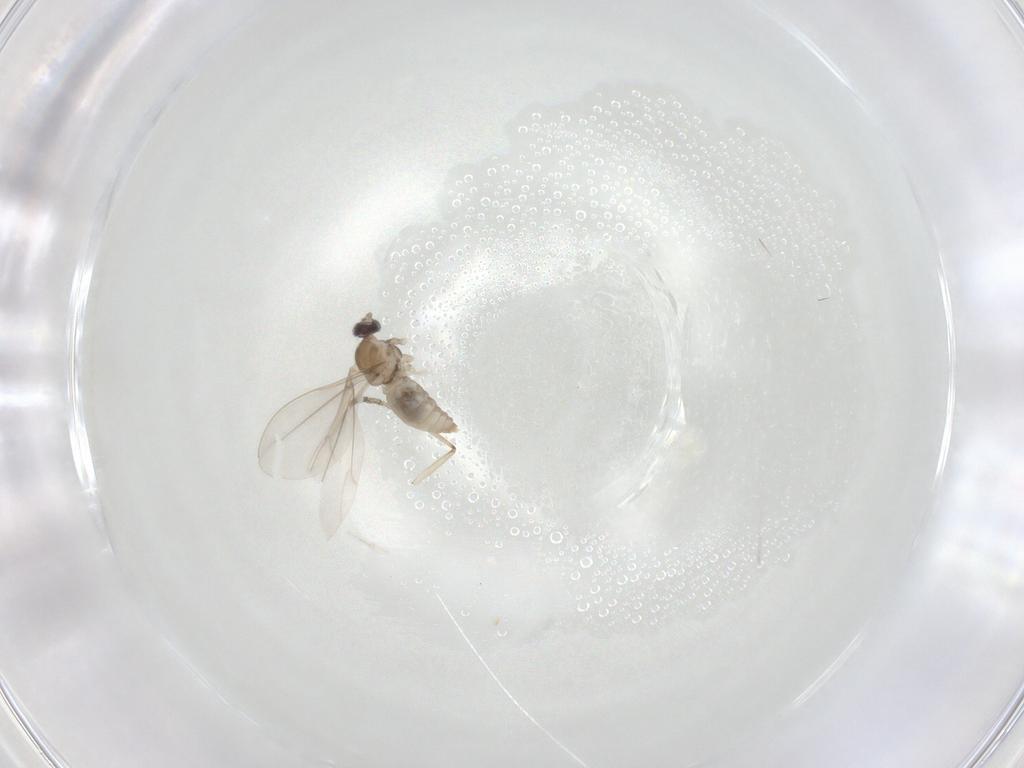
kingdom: Animalia
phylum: Arthropoda
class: Insecta
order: Diptera
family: Cecidomyiidae
